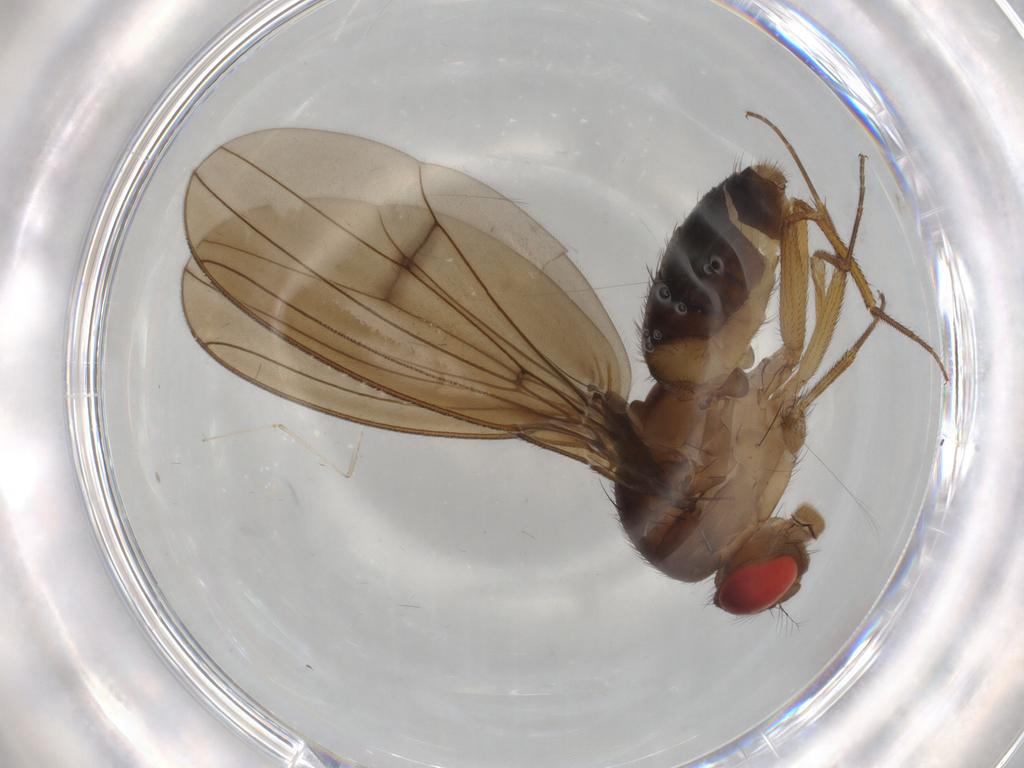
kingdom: Animalia
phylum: Arthropoda
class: Insecta
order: Diptera
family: Drosophilidae
